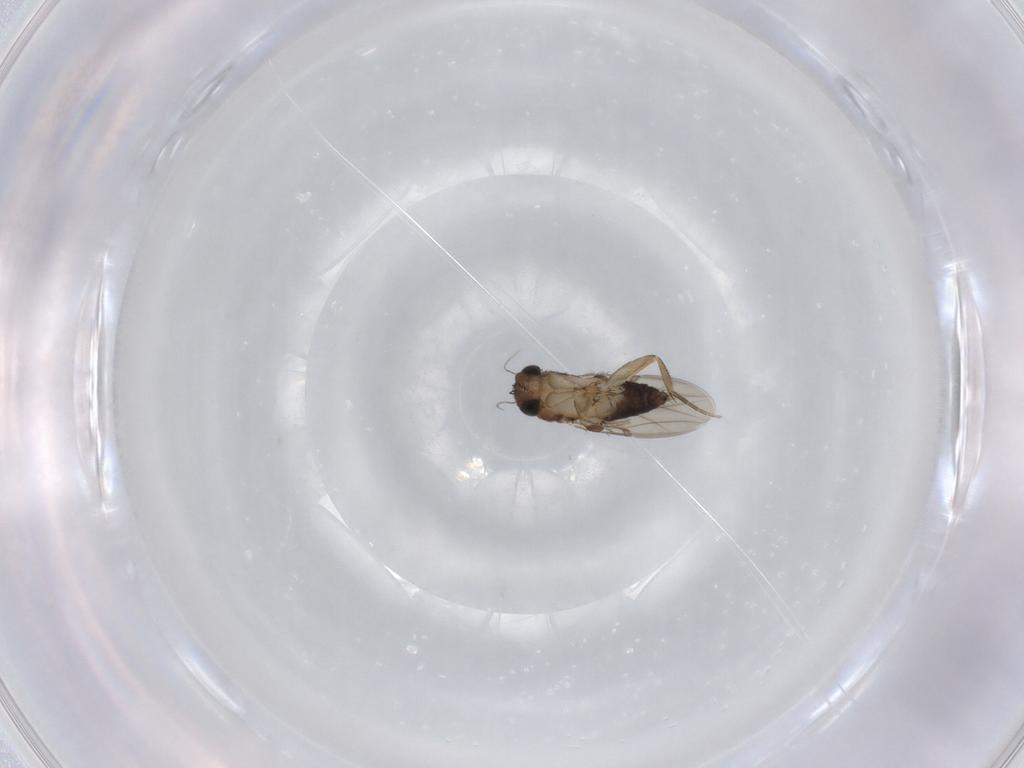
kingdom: Animalia
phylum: Arthropoda
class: Insecta
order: Diptera
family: Phoridae
